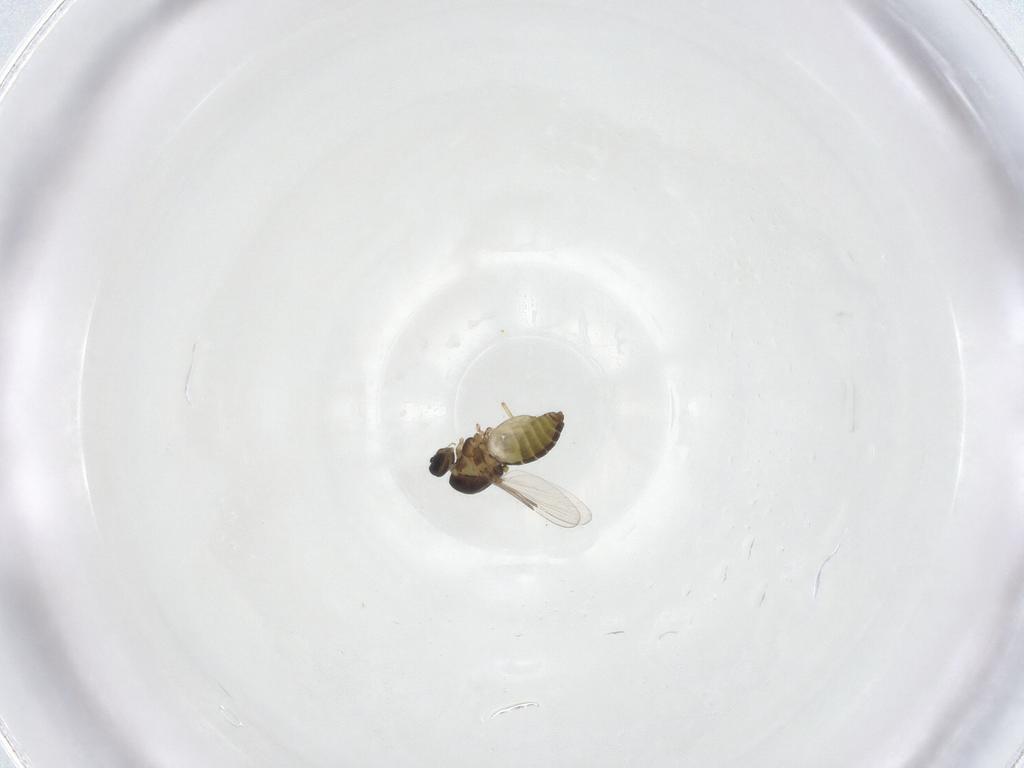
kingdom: Animalia
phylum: Arthropoda
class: Insecta
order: Diptera
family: Ceratopogonidae
